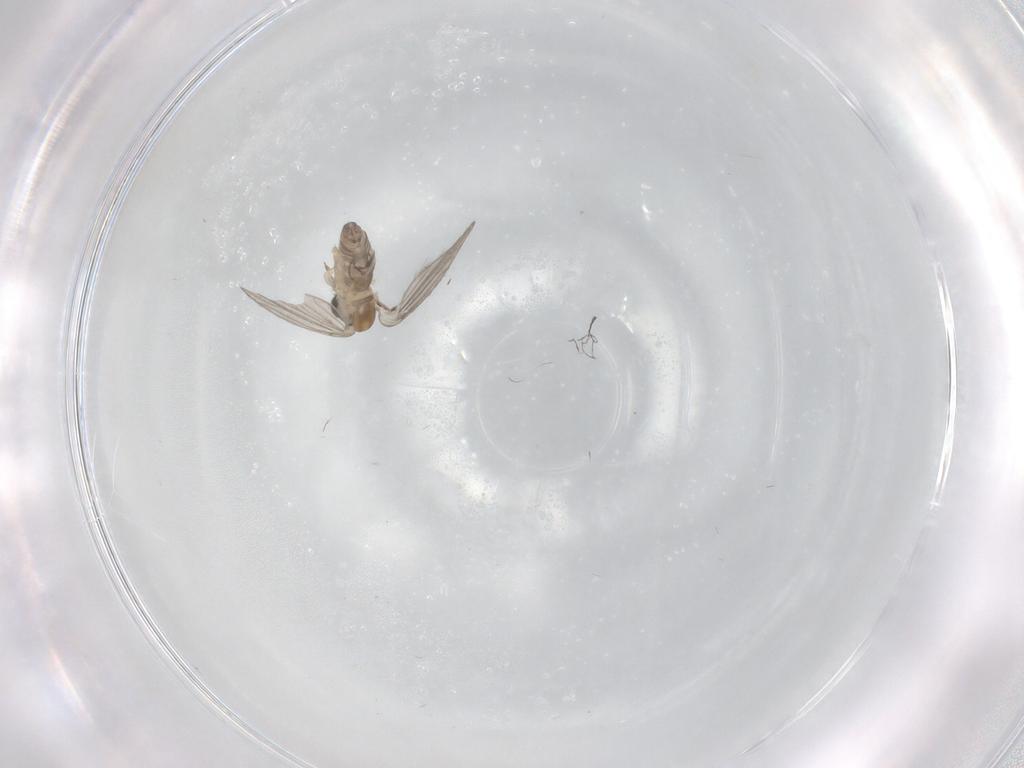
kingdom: Animalia
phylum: Arthropoda
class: Insecta
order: Diptera
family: Psychodidae
